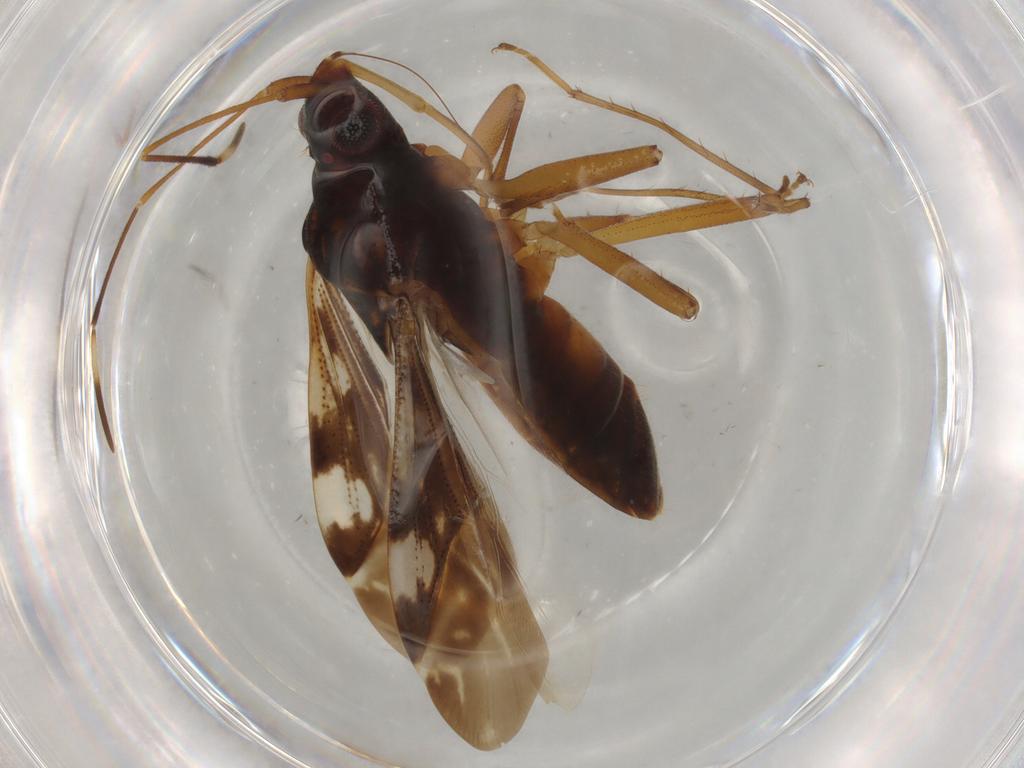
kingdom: Animalia
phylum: Arthropoda
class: Insecta
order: Hemiptera
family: Rhyparochromidae
